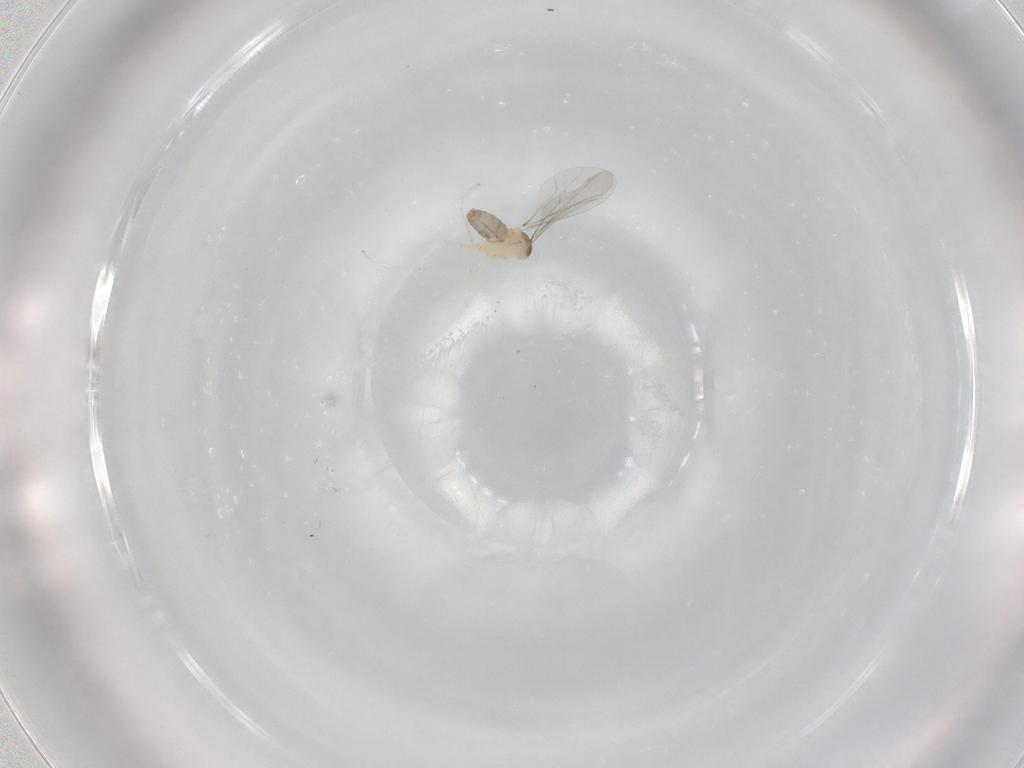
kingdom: Animalia
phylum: Arthropoda
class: Insecta
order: Diptera
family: Cecidomyiidae
